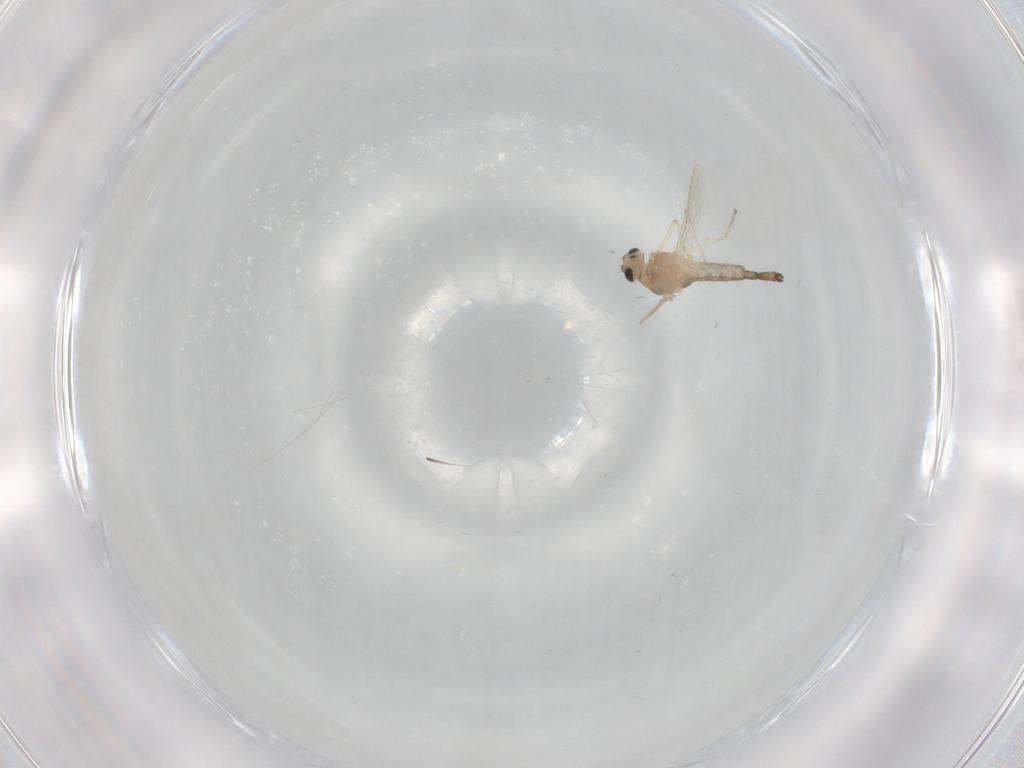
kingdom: Animalia
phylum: Arthropoda
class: Insecta
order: Diptera
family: Chironomidae
